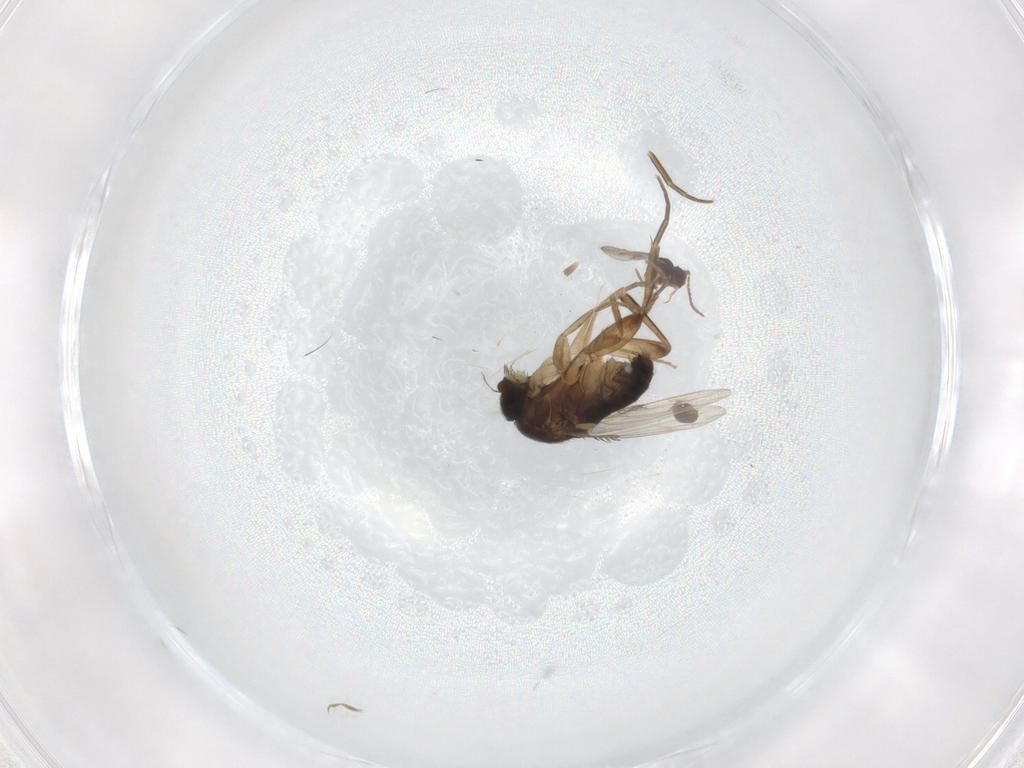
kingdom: Animalia
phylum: Arthropoda
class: Insecta
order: Diptera
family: Phoridae
